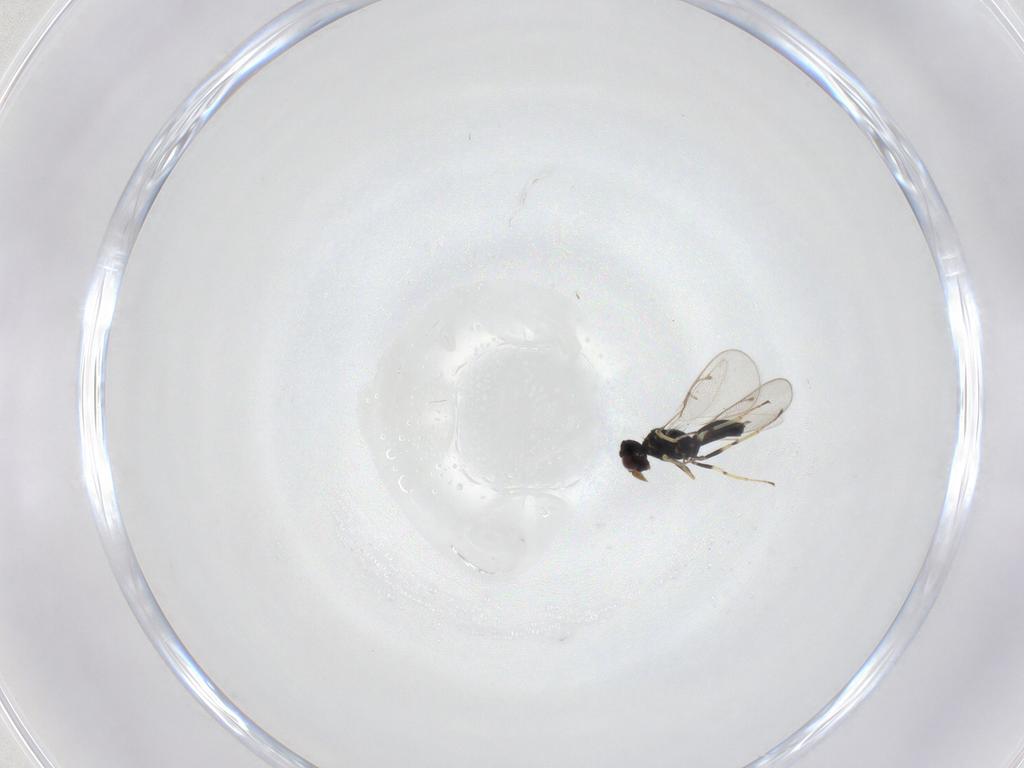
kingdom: Animalia
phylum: Arthropoda
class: Insecta
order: Hymenoptera
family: Eulophidae
